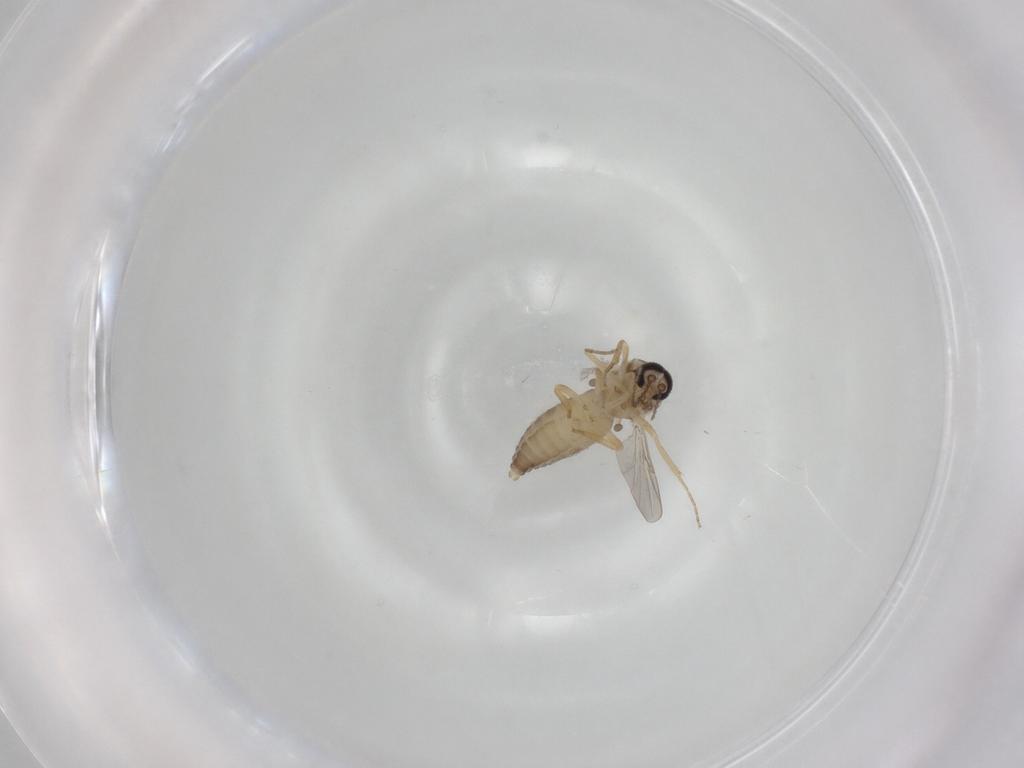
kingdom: Animalia
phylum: Arthropoda
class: Insecta
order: Diptera
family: Ceratopogonidae
